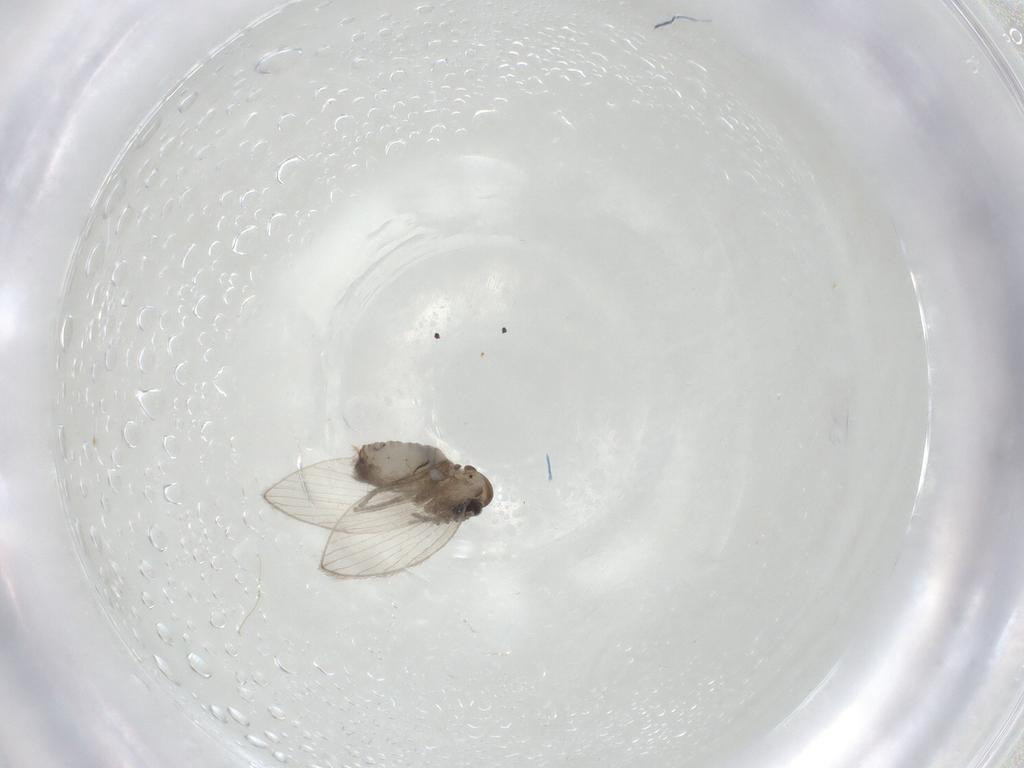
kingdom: Animalia
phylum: Arthropoda
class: Insecta
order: Diptera
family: Psychodidae
